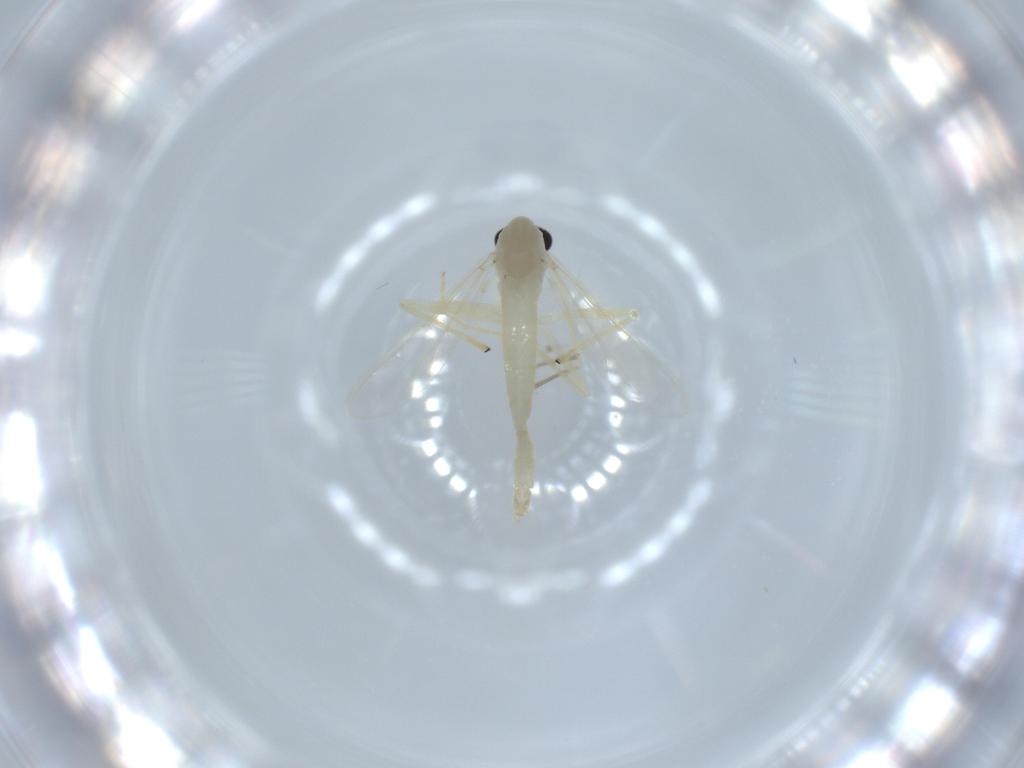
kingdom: Animalia
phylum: Arthropoda
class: Insecta
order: Diptera
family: Chironomidae
